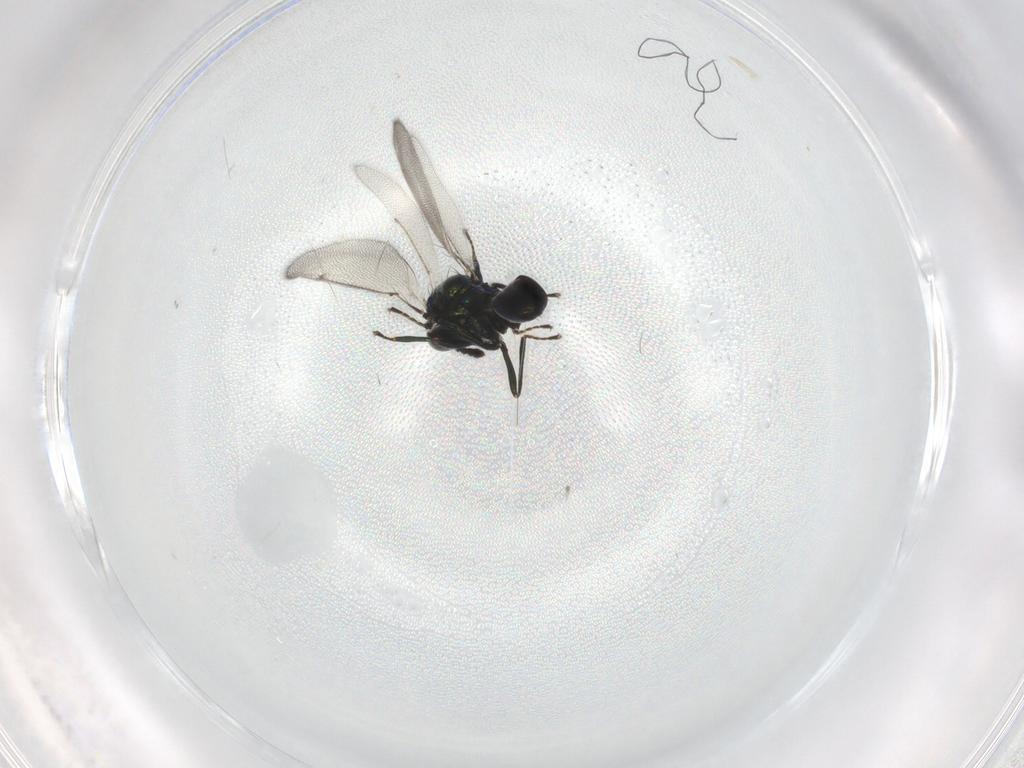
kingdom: Animalia
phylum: Arthropoda
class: Insecta
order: Hymenoptera
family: Eulophidae
